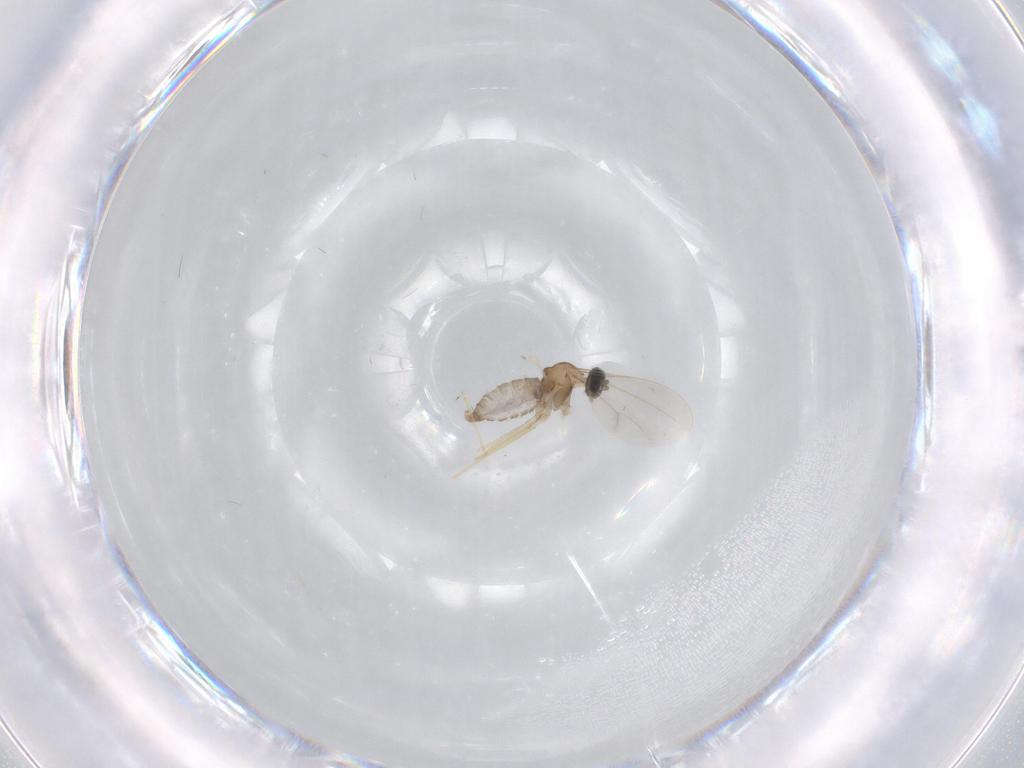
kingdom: Animalia
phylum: Arthropoda
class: Insecta
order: Diptera
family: Cecidomyiidae
